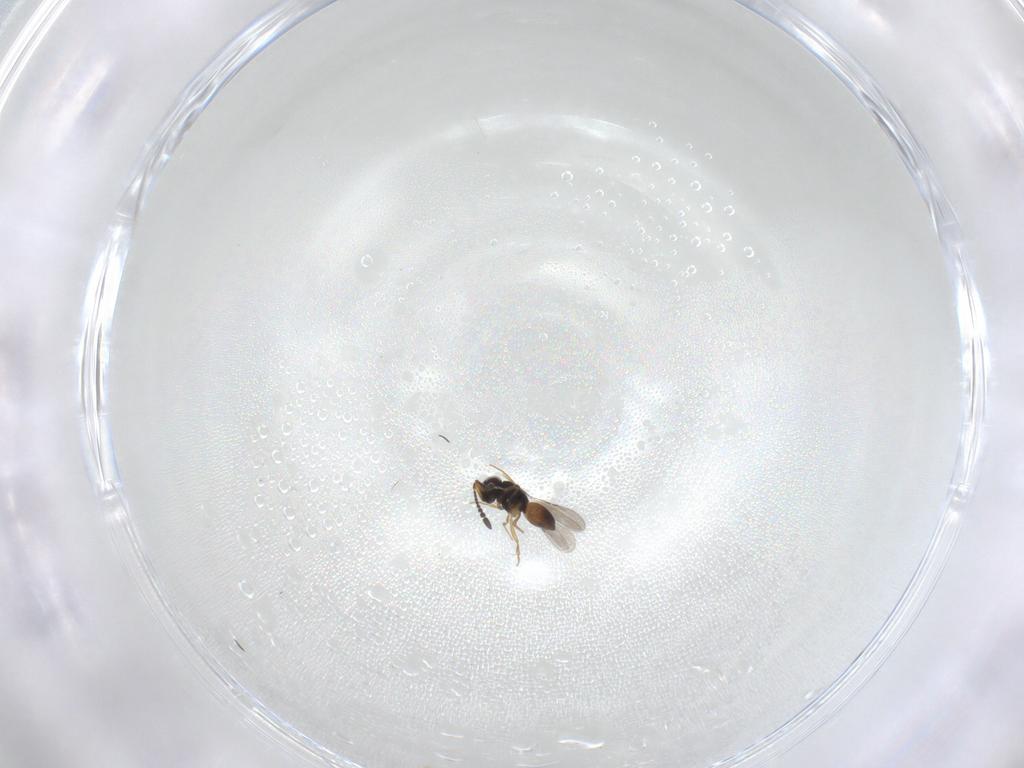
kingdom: Animalia
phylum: Arthropoda
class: Insecta
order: Hymenoptera
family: Scelionidae
